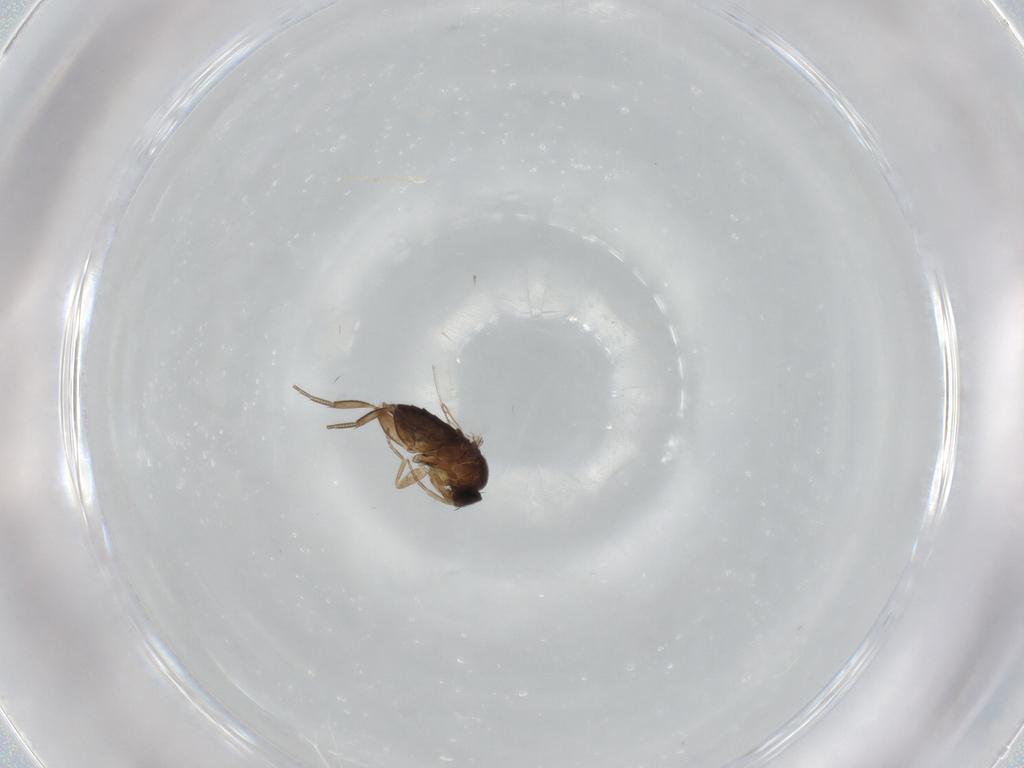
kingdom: Animalia
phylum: Arthropoda
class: Insecta
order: Diptera
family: Phoridae
